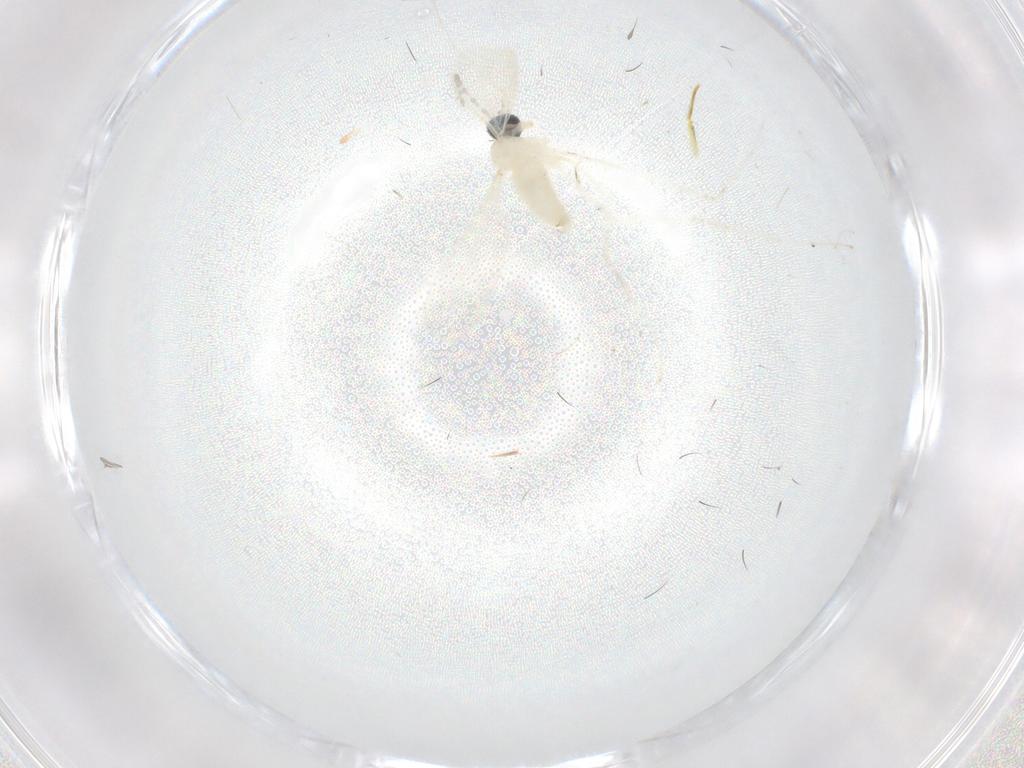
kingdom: Animalia
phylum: Arthropoda
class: Insecta
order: Diptera
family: Cecidomyiidae
